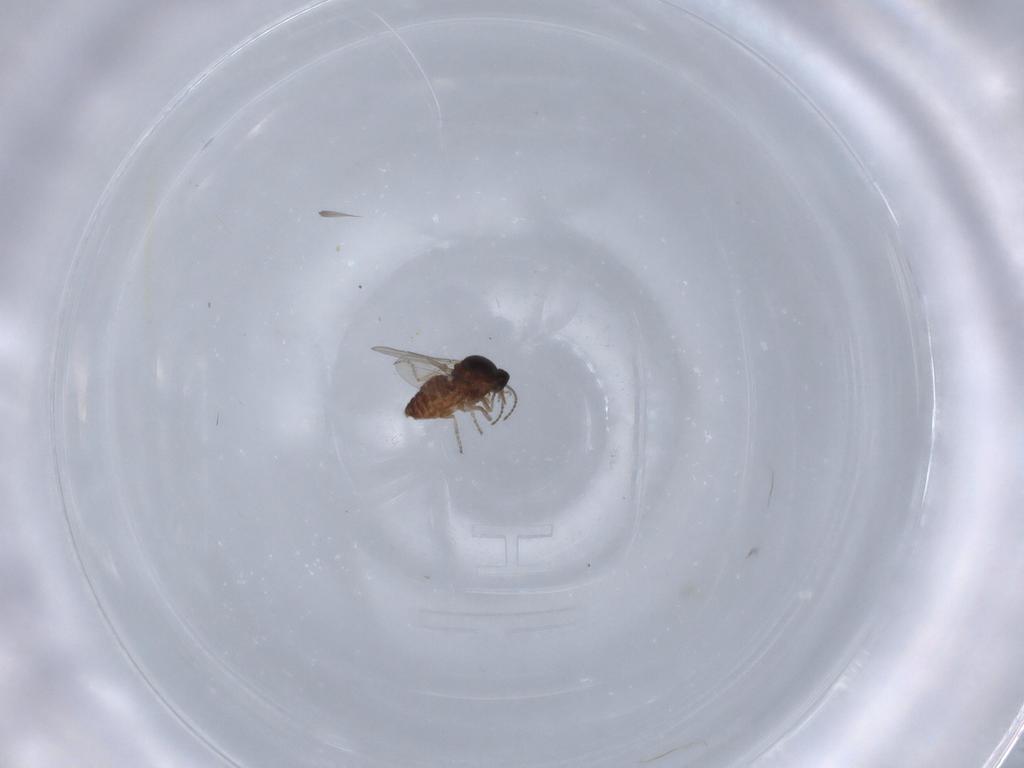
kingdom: Animalia
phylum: Arthropoda
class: Insecta
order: Diptera
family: Ceratopogonidae
